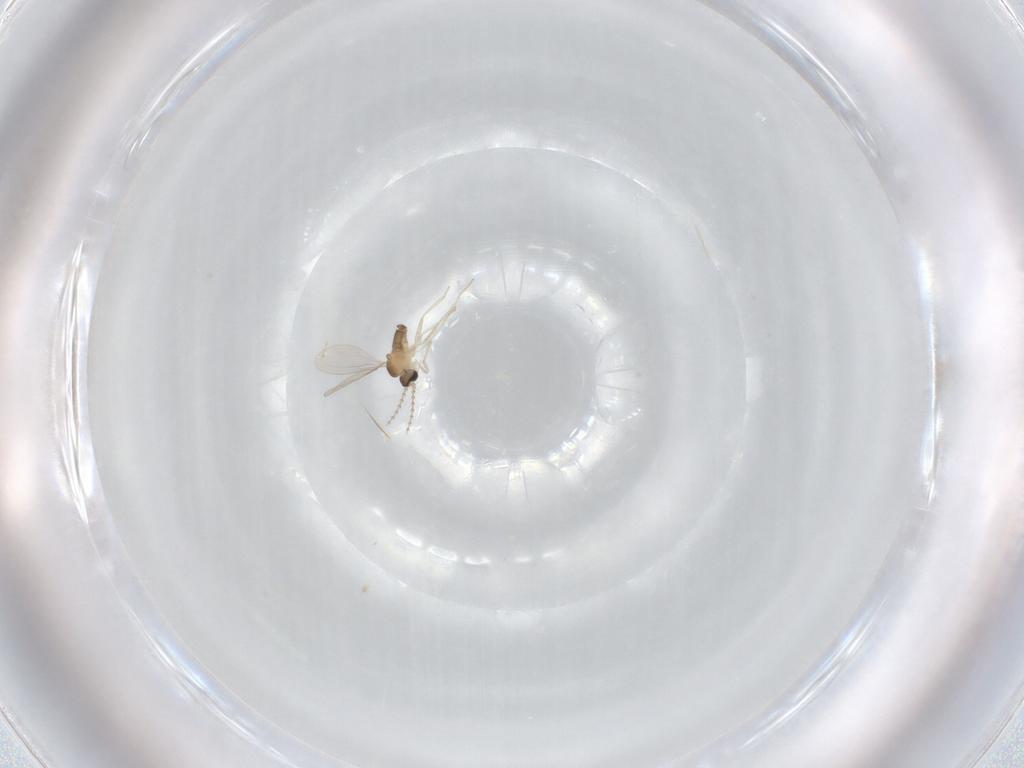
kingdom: Animalia
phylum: Arthropoda
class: Insecta
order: Diptera
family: Cecidomyiidae
